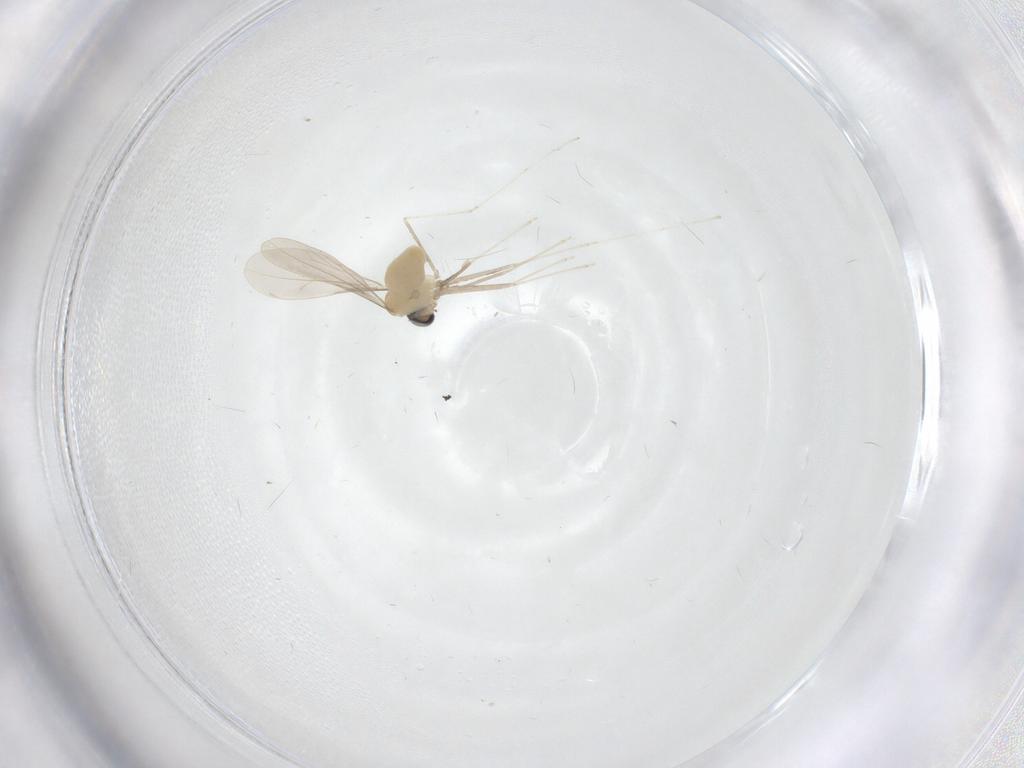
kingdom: Animalia
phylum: Arthropoda
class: Insecta
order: Diptera
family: Cecidomyiidae
